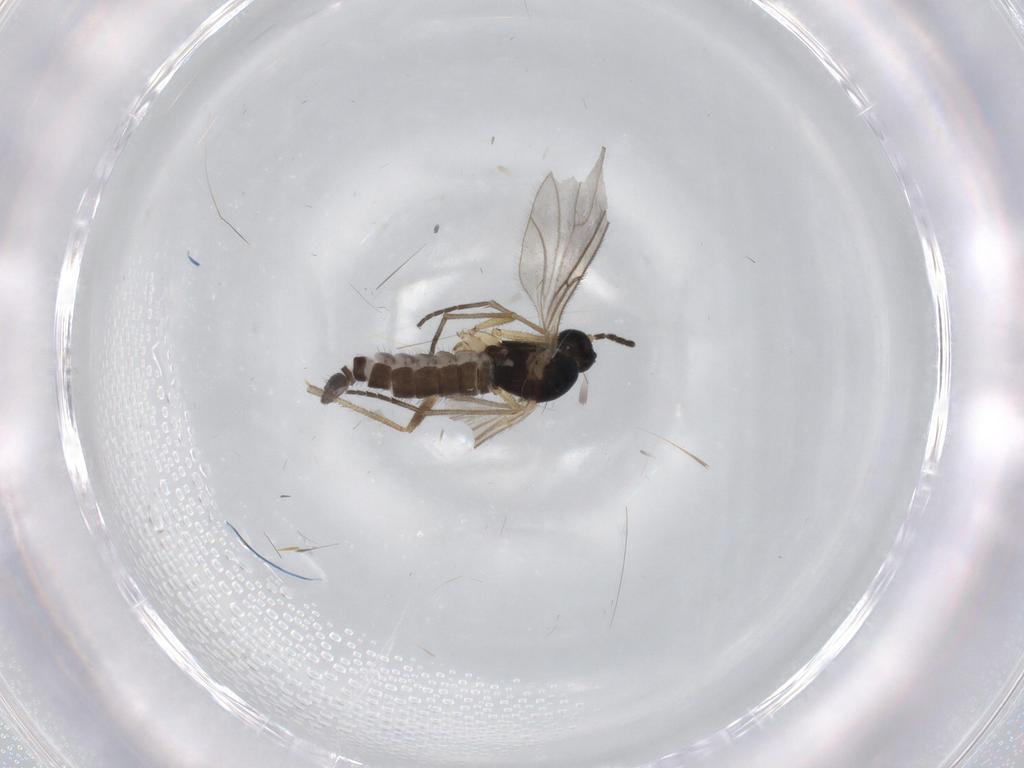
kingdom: Animalia
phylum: Arthropoda
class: Insecta
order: Diptera
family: Sciaridae
